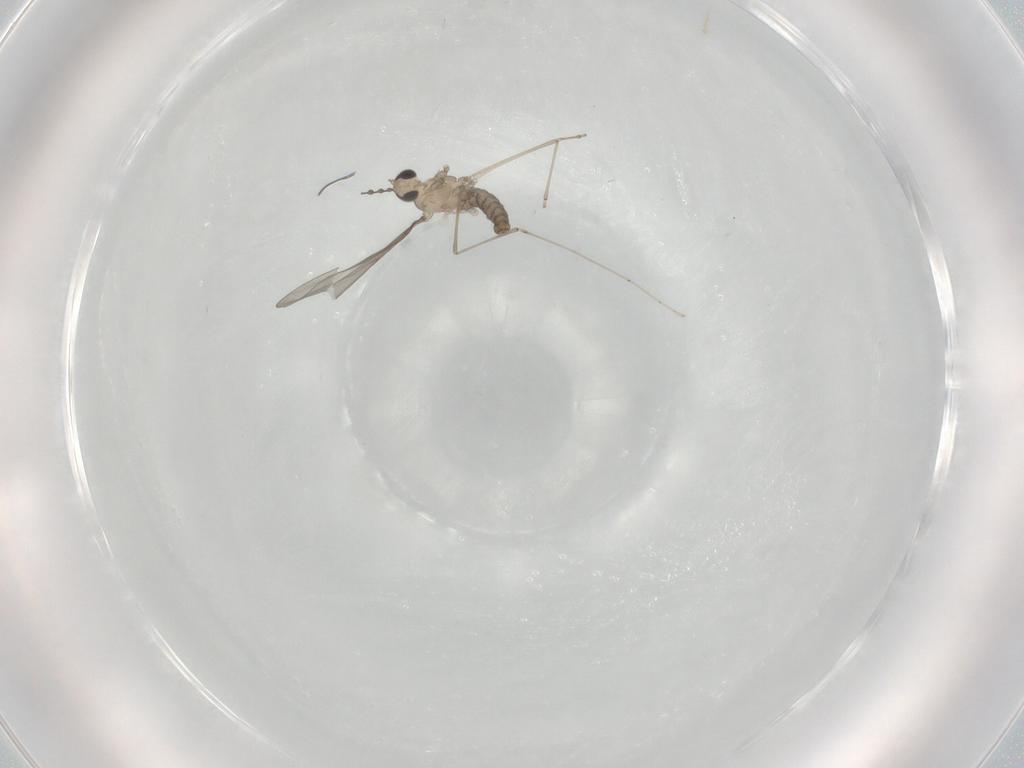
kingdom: Animalia
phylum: Arthropoda
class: Insecta
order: Diptera
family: Cecidomyiidae
